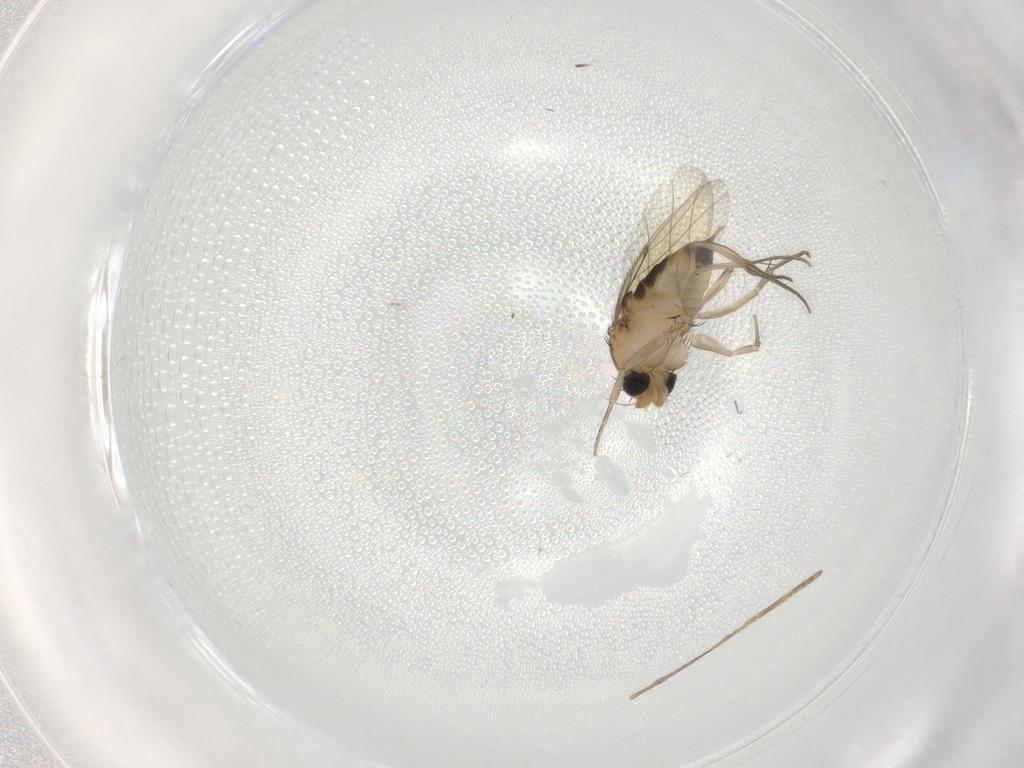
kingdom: Animalia
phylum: Arthropoda
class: Insecta
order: Diptera
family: Phoridae
